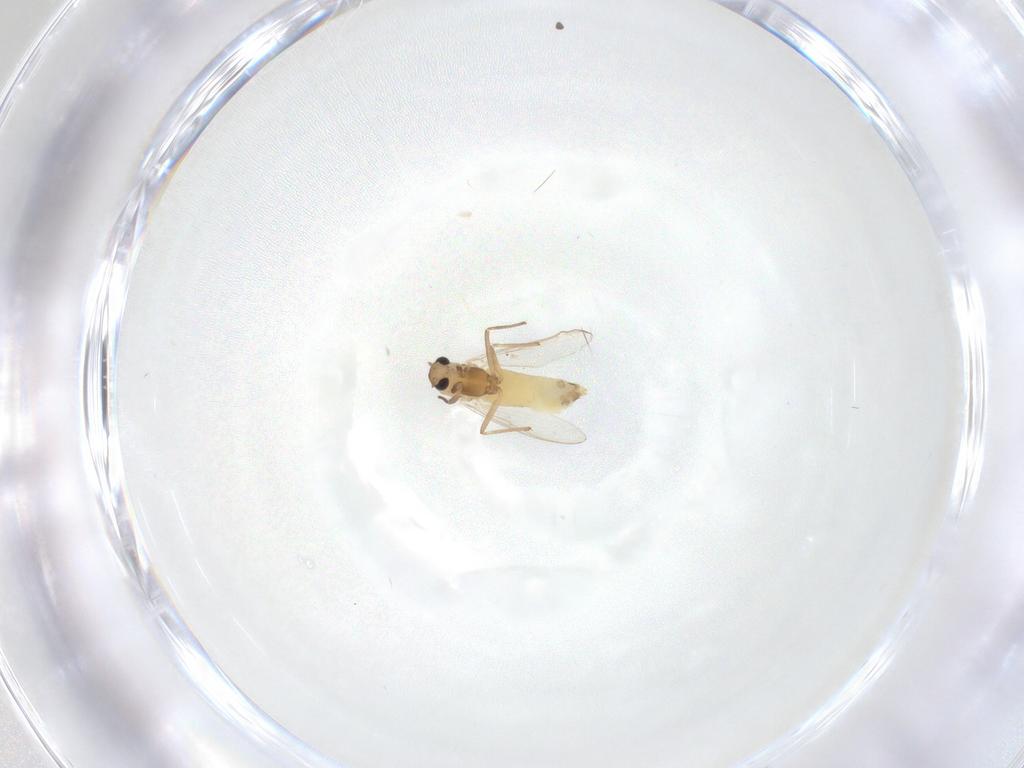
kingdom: Animalia
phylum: Arthropoda
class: Insecta
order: Diptera
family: Chironomidae
